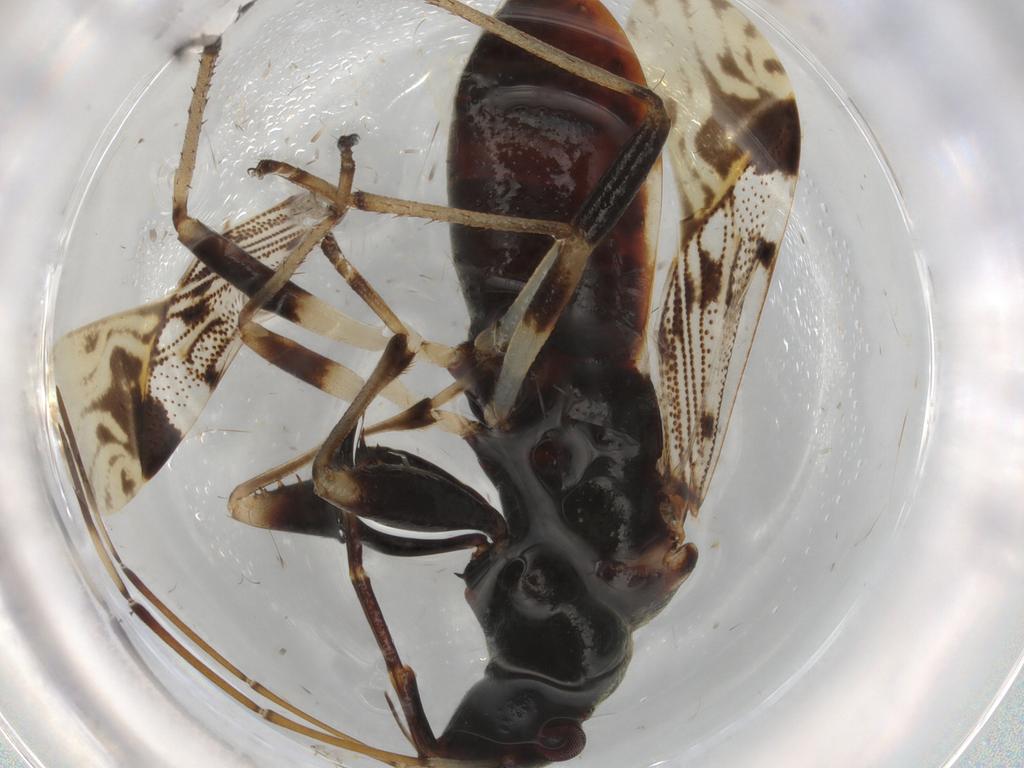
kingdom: Animalia
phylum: Arthropoda
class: Insecta
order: Hemiptera
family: Rhyparochromidae
